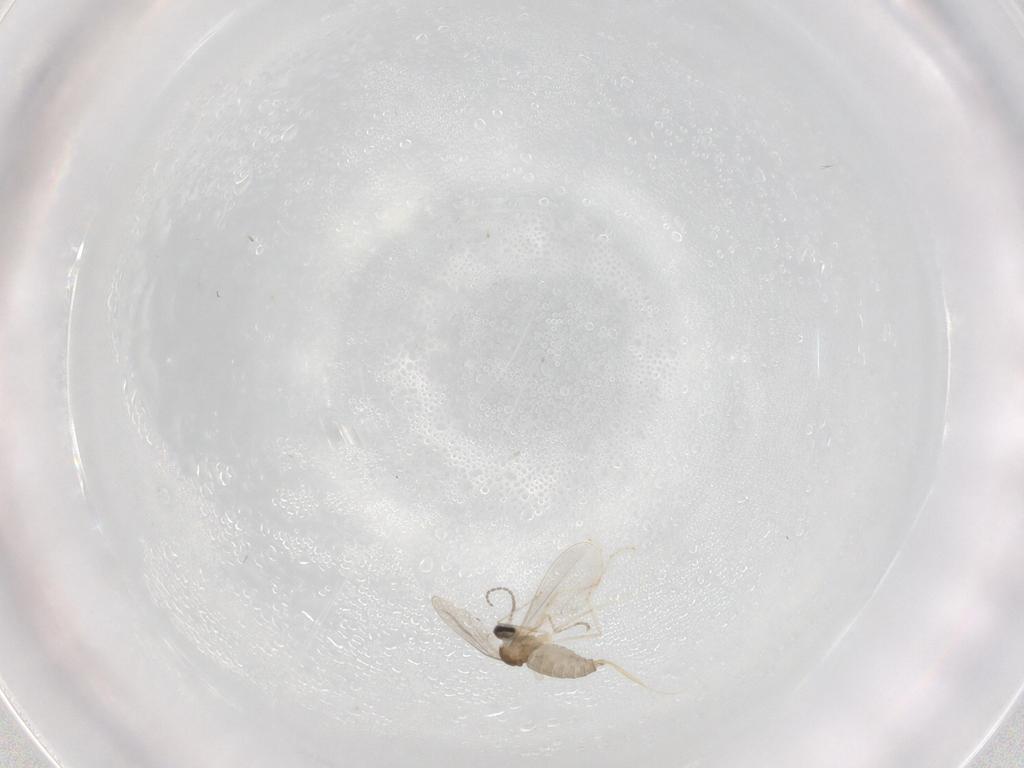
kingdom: Animalia
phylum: Arthropoda
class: Insecta
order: Diptera
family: Cecidomyiidae
